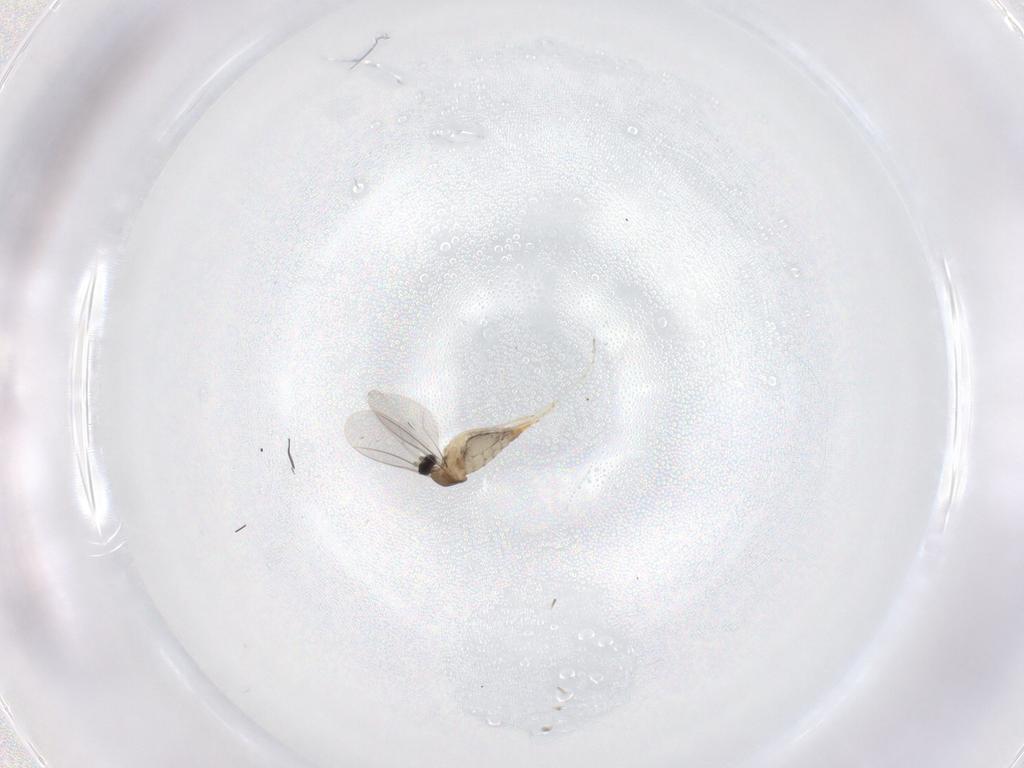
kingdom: Animalia
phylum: Arthropoda
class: Insecta
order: Diptera
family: Cecidomyiidae
